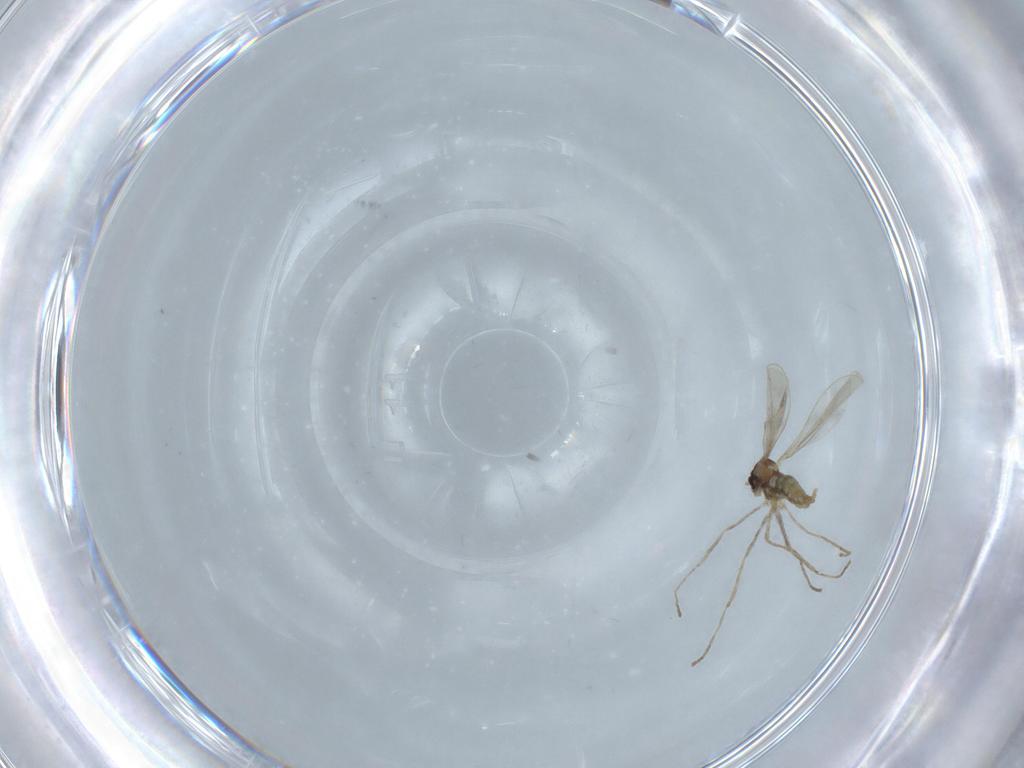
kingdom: Animalia
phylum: Arthropoda
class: Insecta
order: Diptera
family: Cecidomyiidae
